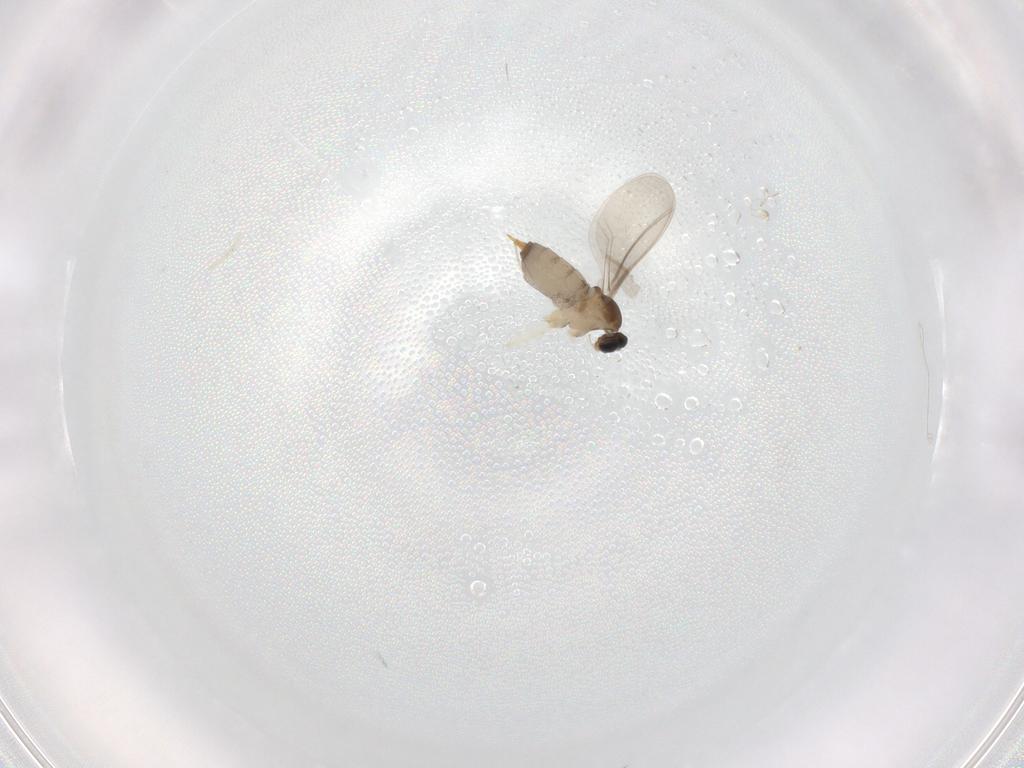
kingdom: Animalia
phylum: Arthropoda
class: Insecta
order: Diptera
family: Cecidomyiidae
